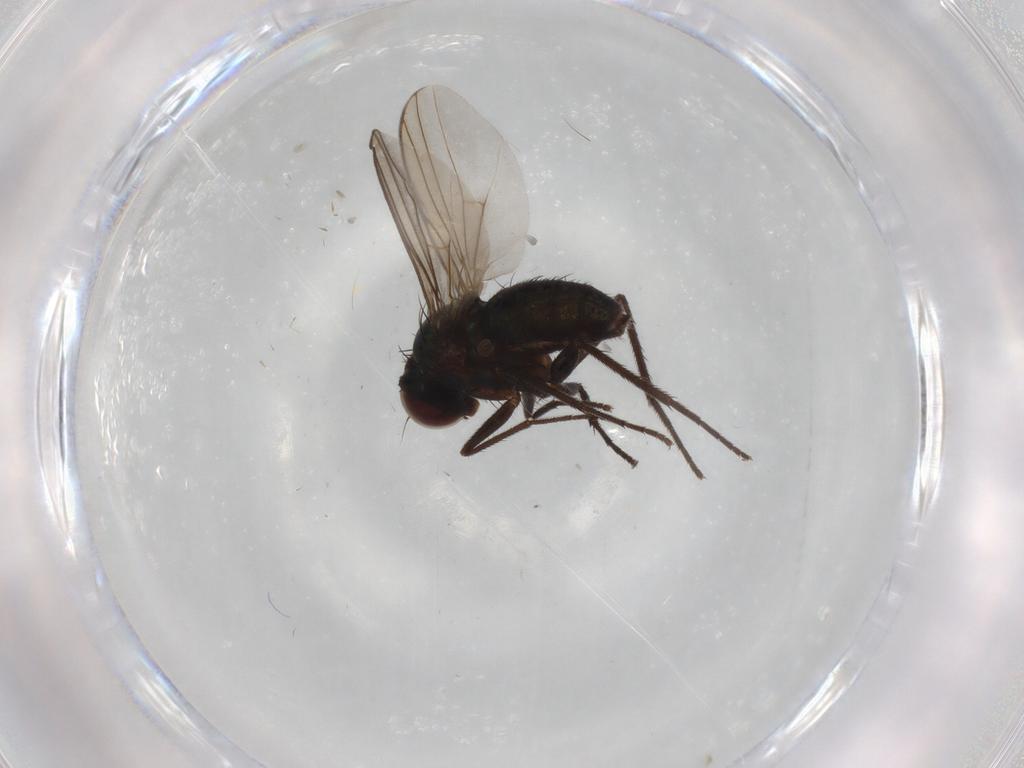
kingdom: Animalia
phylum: Arthropoda
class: Insecta
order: Diptera
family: Dolichopodidae
